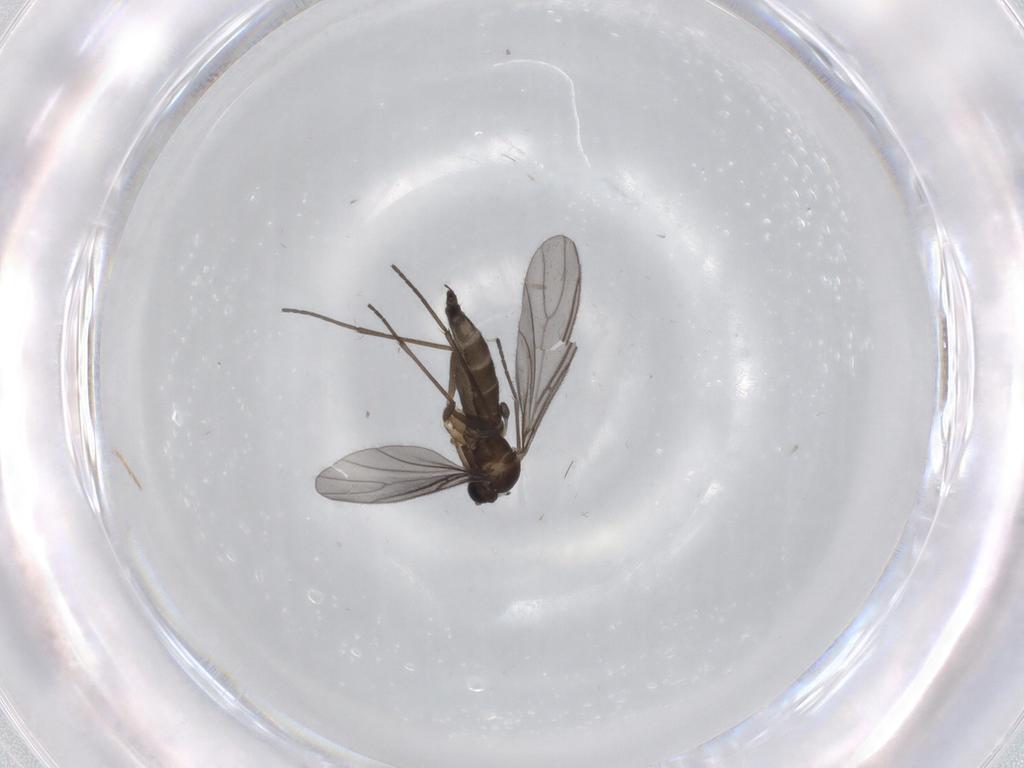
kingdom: Animalia
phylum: Arthropoda
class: Insecta
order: Diptera
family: Sciaridae
